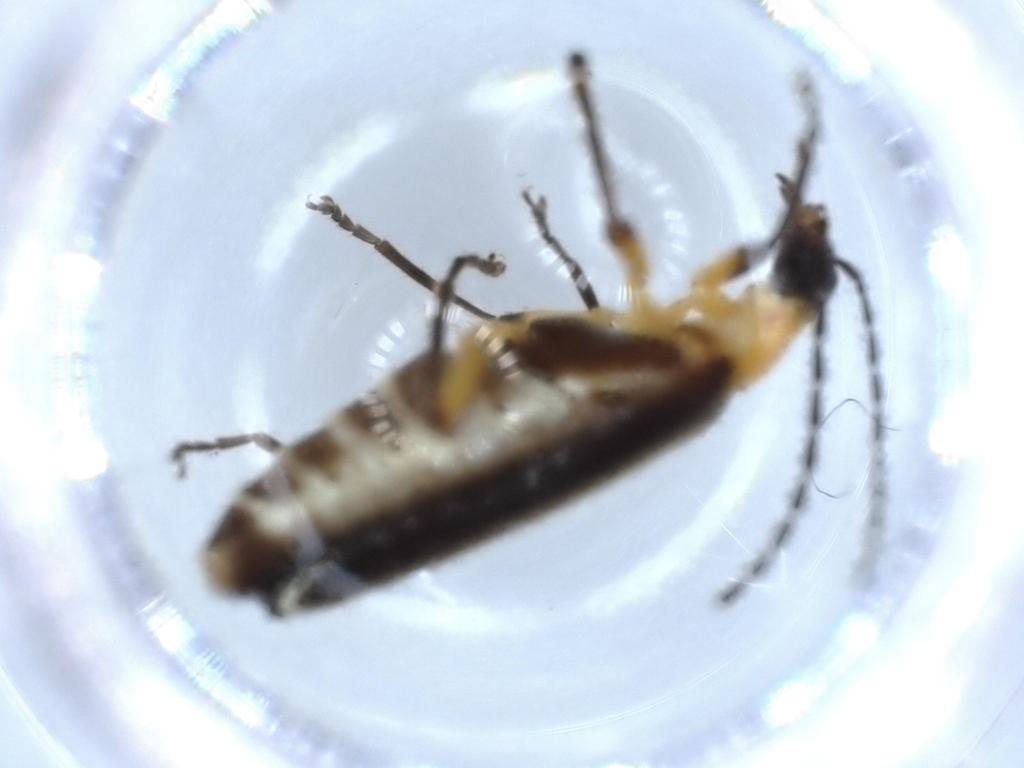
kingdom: Animalia
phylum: Arthropoda
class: Insecta
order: Coleoptera
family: Cantharidae
